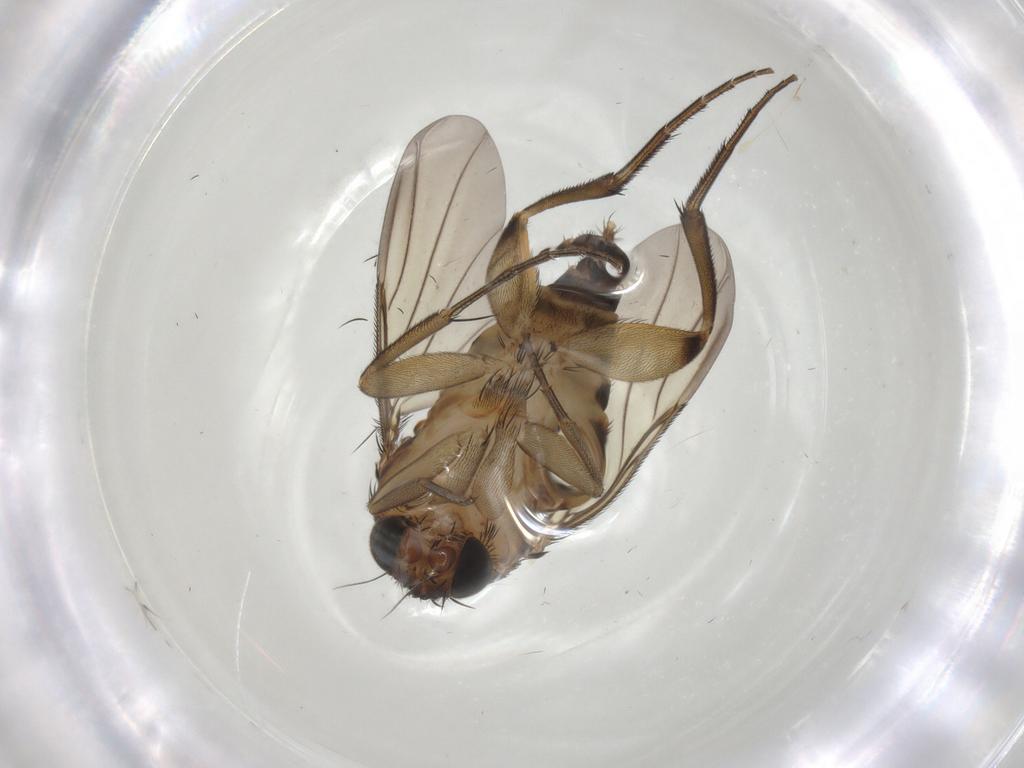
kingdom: Animalia
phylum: Arthropoda
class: Insecta
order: Diptera
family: Phoridae
